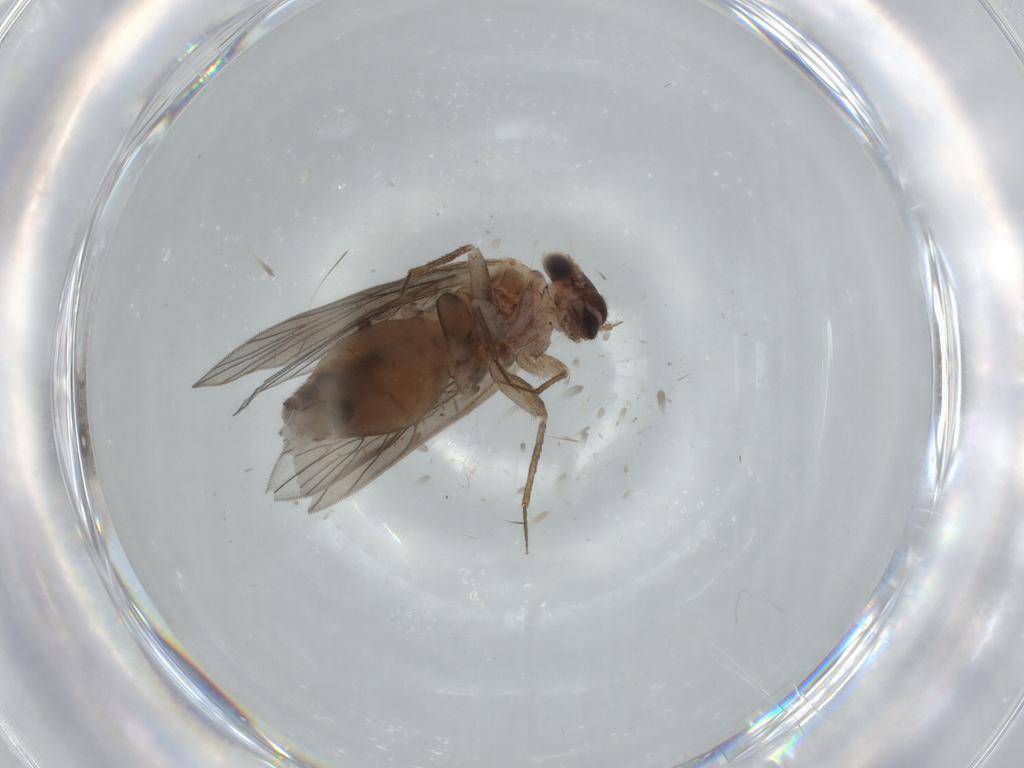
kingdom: Animalia
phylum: Arthropoda
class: Insecta
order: Psocodea
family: Lepidopsocidae
